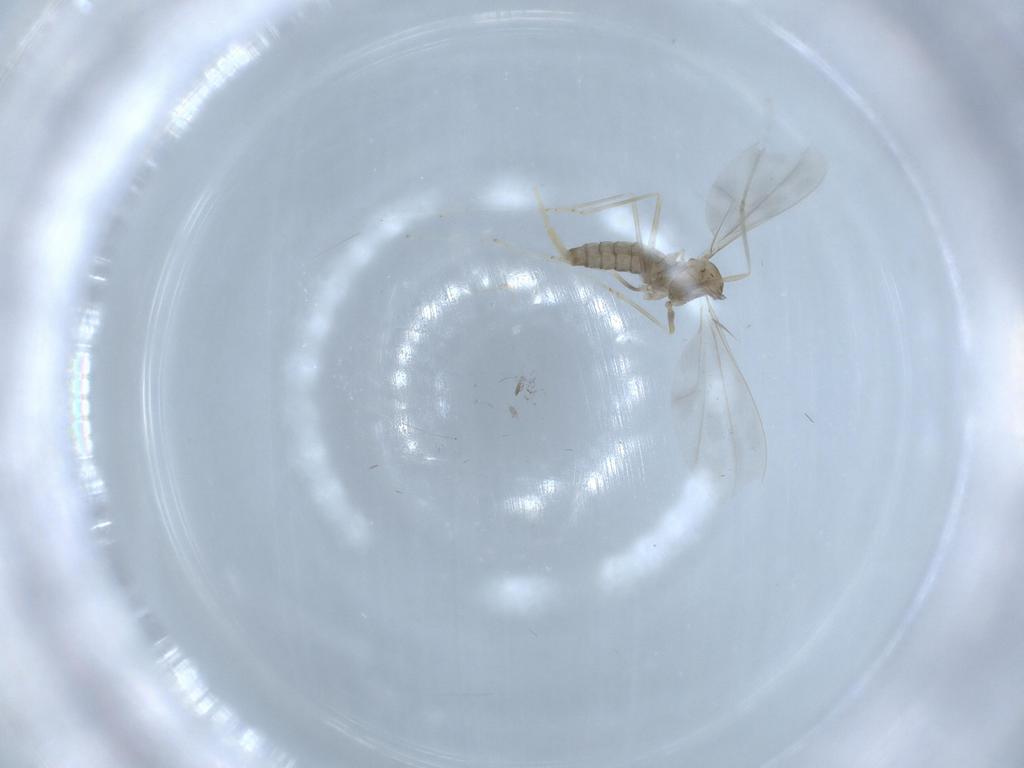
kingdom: Animalia
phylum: Arthropoda
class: Insecta
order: Diptera
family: Cecidomyiidae
